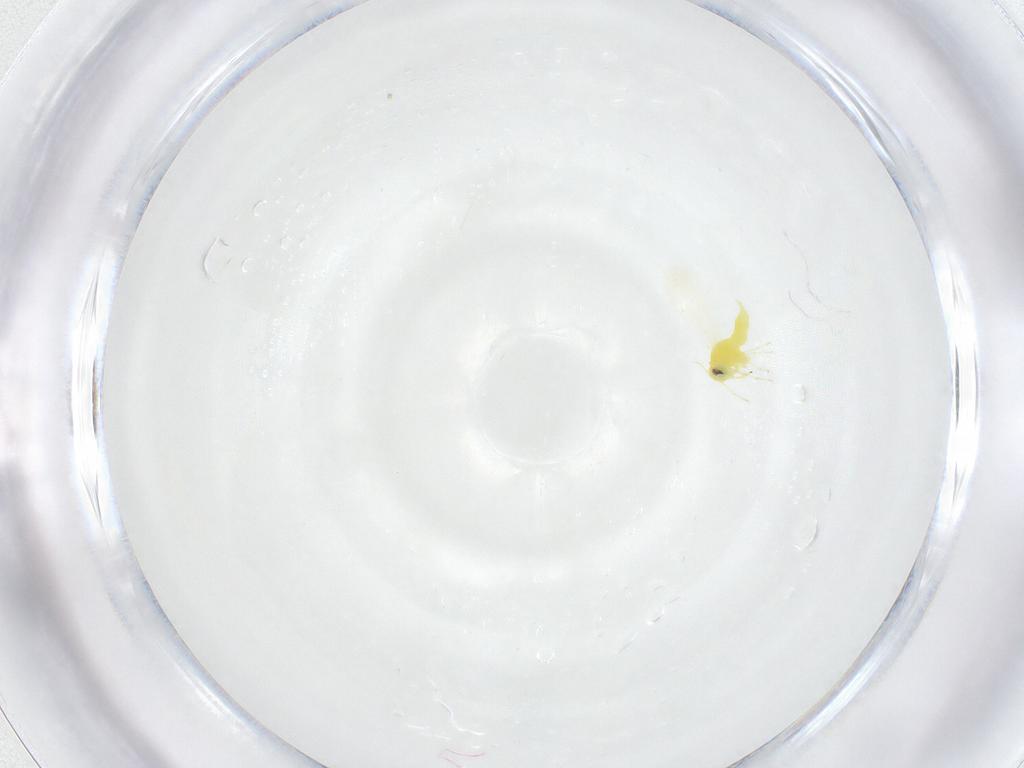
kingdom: Animalia
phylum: Arthropoda
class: Insecta
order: Hemiptera
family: Aleyrodidae
